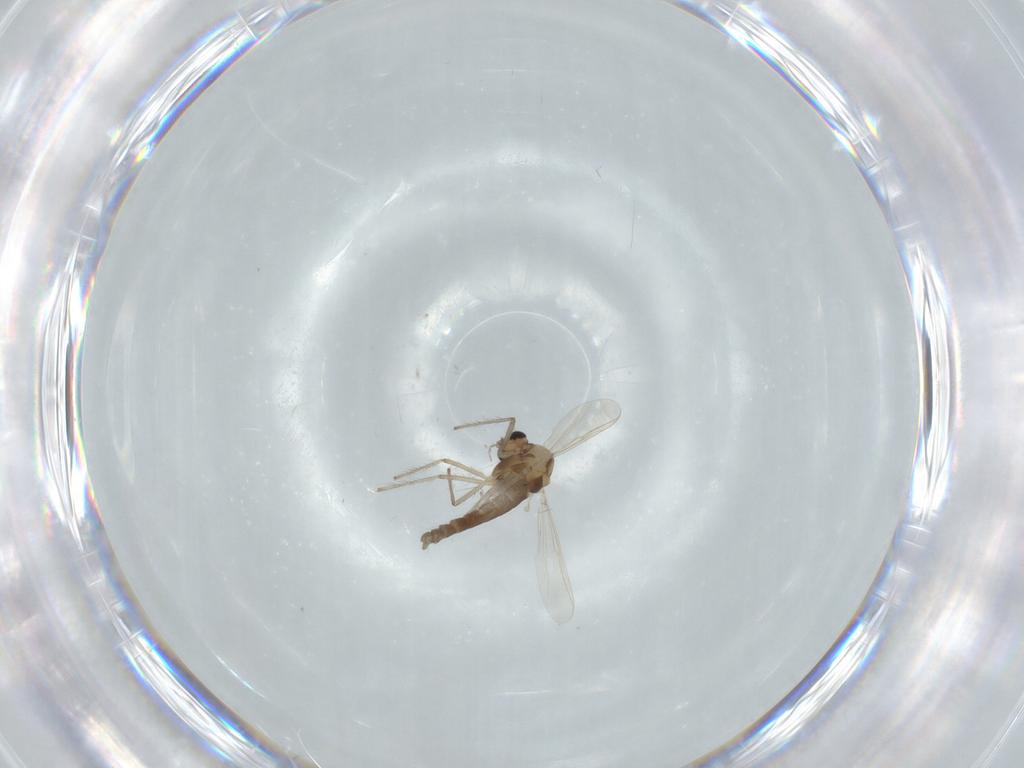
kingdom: Animalia
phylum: Arthropoda
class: Insecta
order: Diptera
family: Chironomidae
